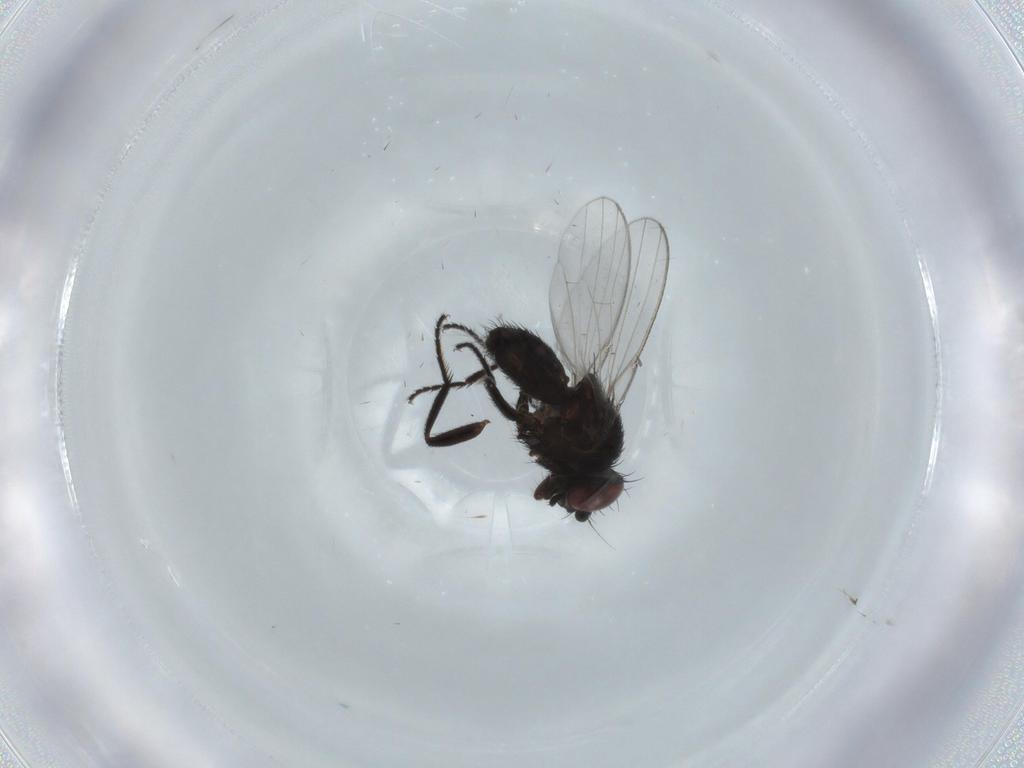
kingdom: Animalia
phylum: Arthropoda
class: Insecta
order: Diptera
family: Milichiidae
